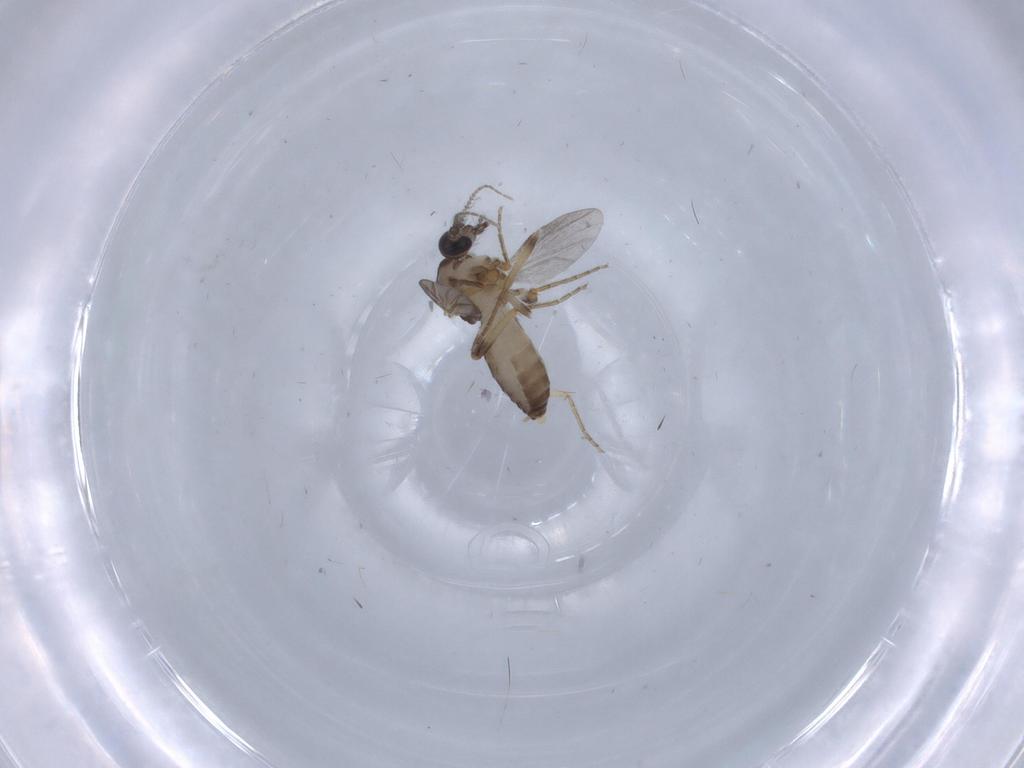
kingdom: Animalia
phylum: Arthropoda
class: Insecta
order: Diptera
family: Ceratopogonidae
